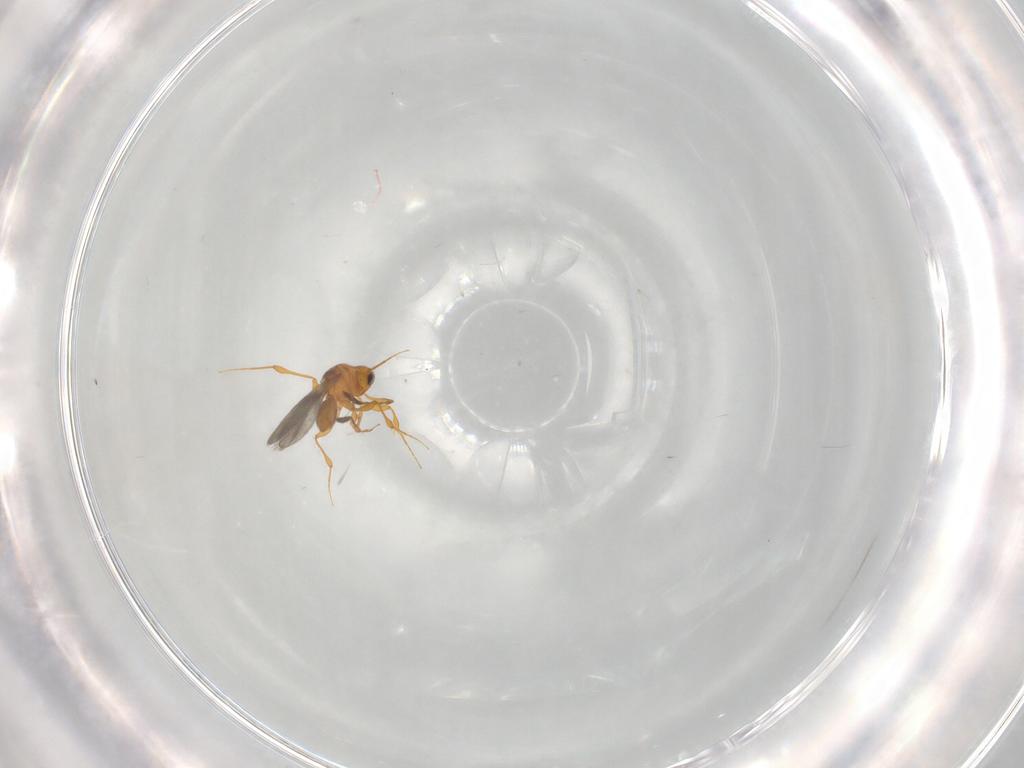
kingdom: Animalia
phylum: Arthropoda
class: Insecta
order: Hymenoptera
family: Platygastridae
